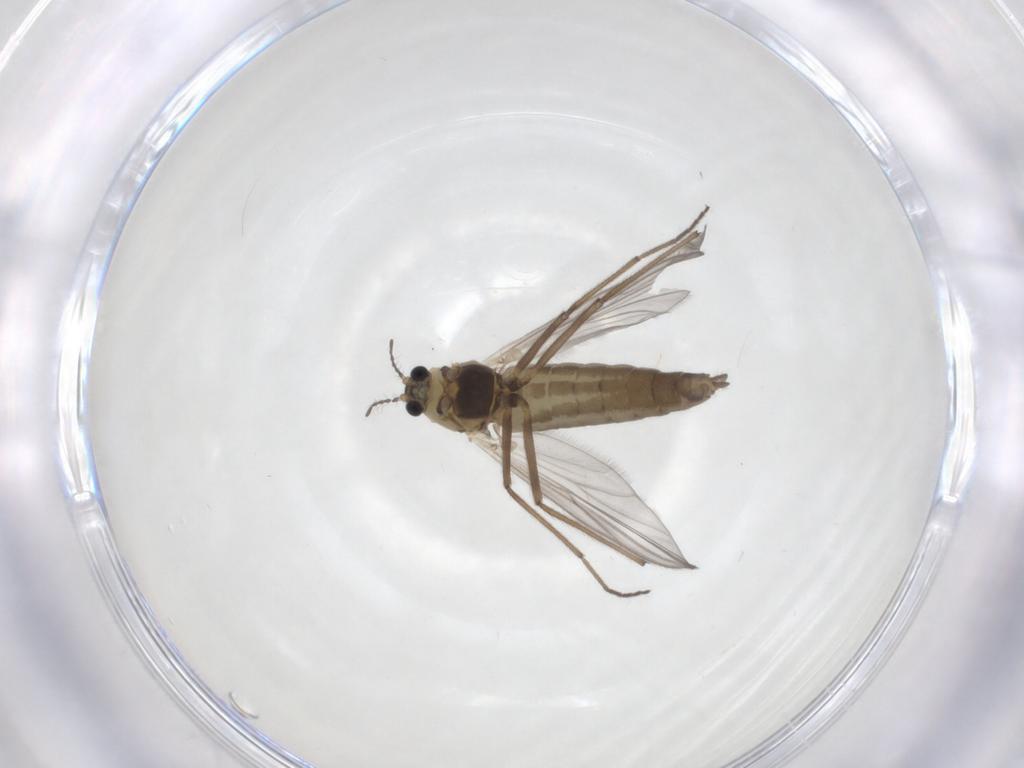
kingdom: Animalia
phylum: Arthropoda
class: Insecta
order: Diptera
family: Chironomidae
